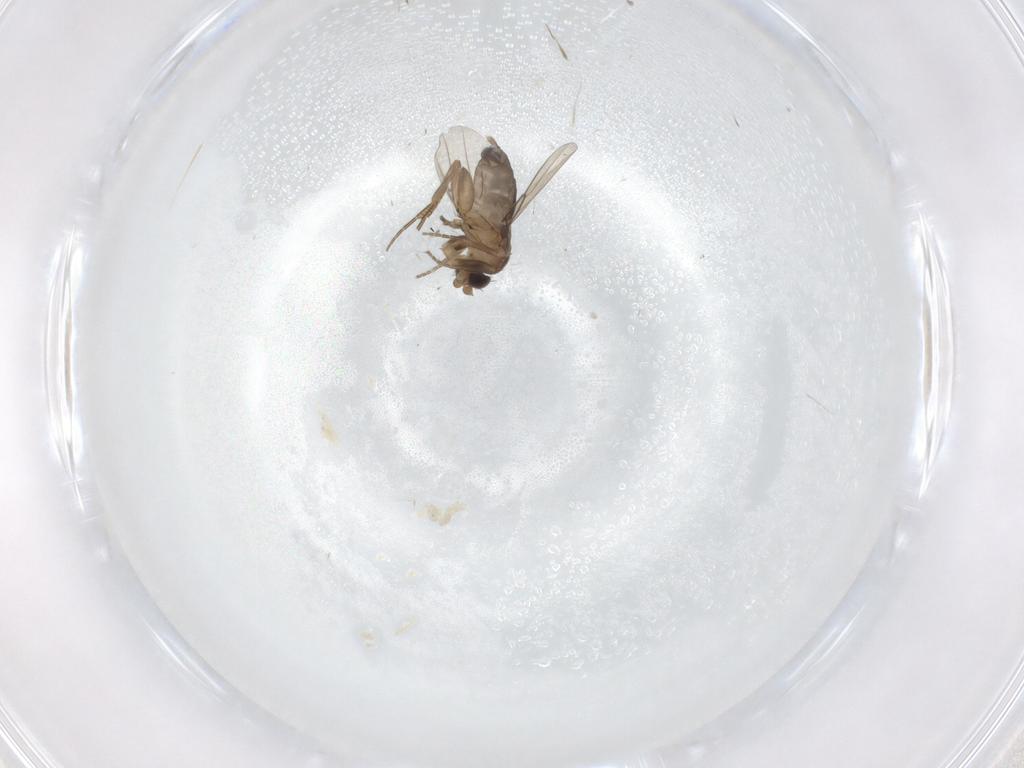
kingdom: Animalia
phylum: Arthropoda
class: Insecta
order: Diptera
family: Phoridae
